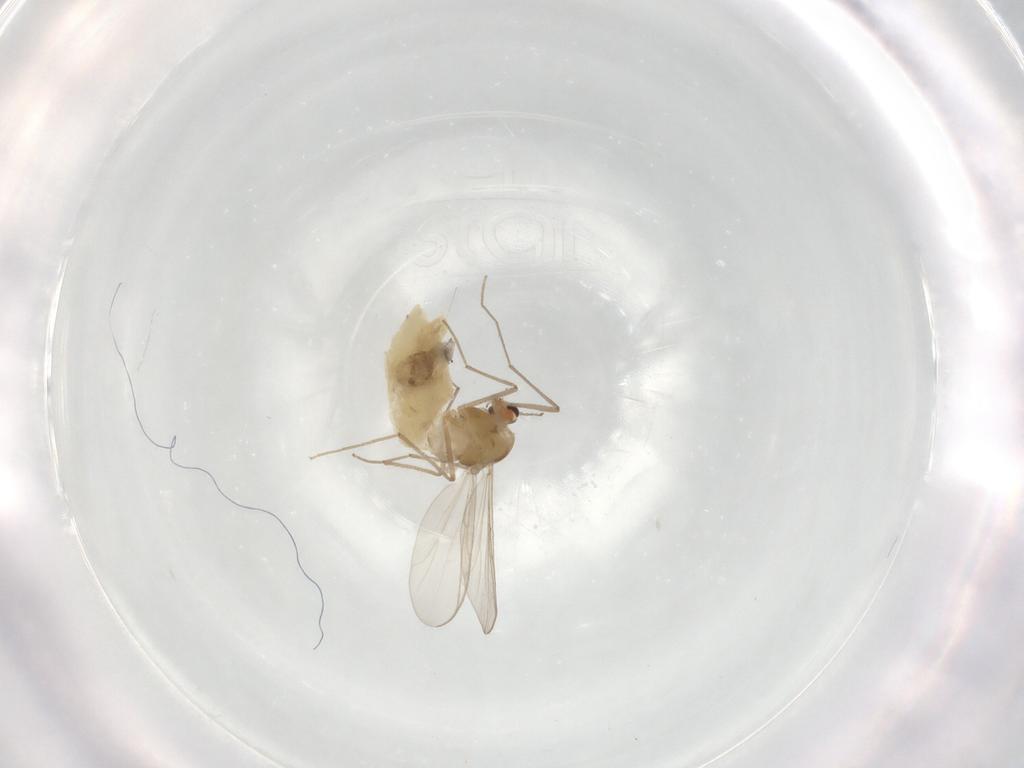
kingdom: Animalia
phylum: Arthropoda
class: Insecta
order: Diptera
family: Chironomidae
